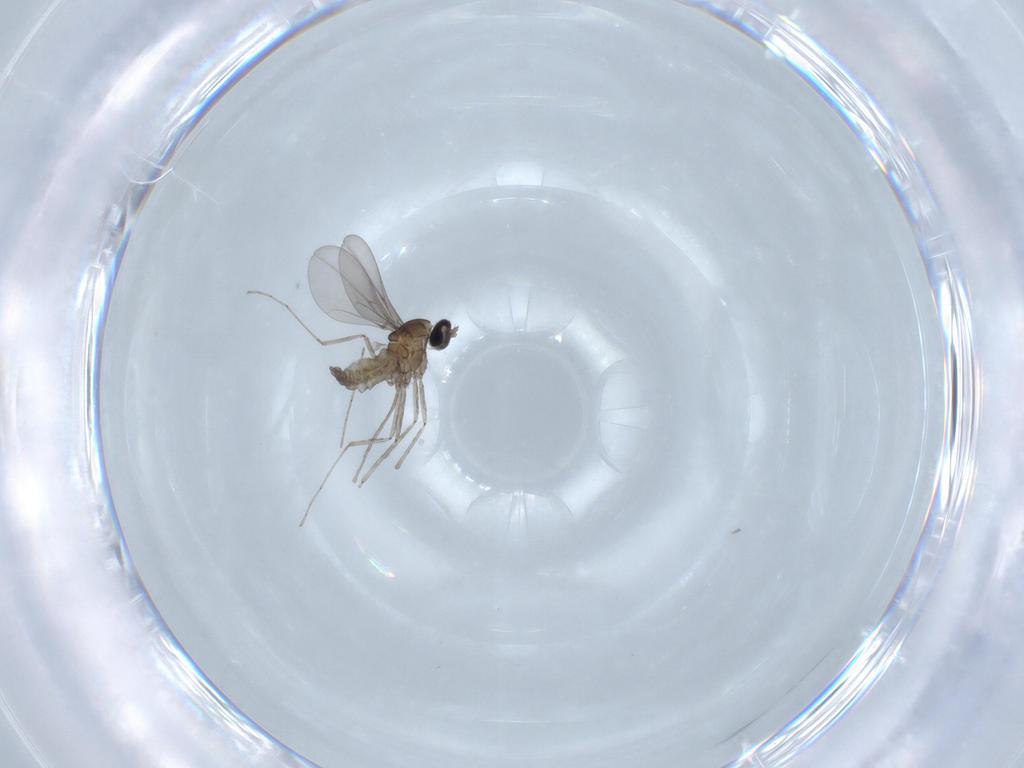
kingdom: Animalia
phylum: Arthropoda
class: Insecta
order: Diptera
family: Cecidomyiidae
